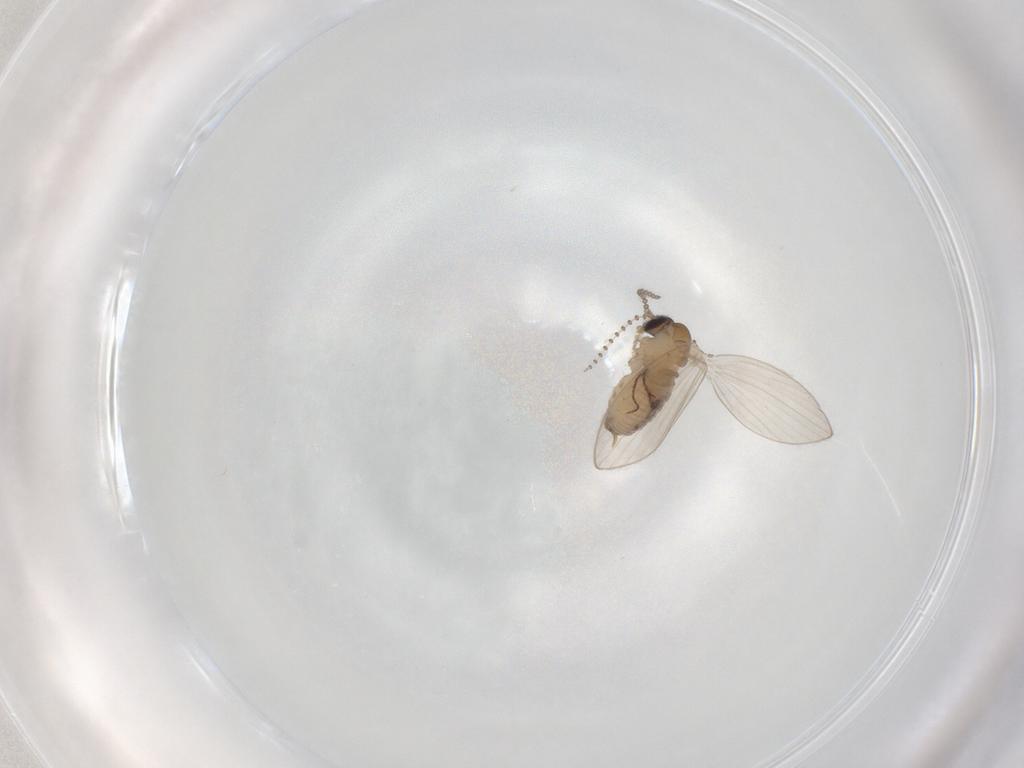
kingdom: Animalia
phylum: Arthropoda
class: Insecta
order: Diptera
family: Psychodidae
